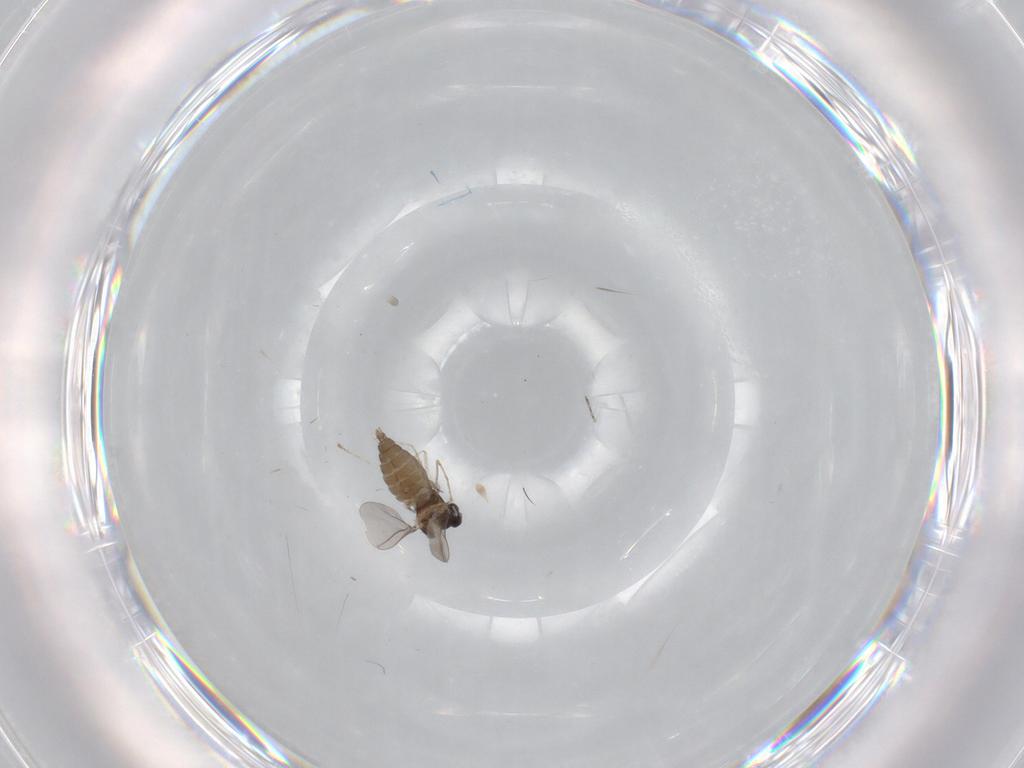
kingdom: Animalia
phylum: Arthropoda
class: Insecta
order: Diptera
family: Cecidomyiidae
